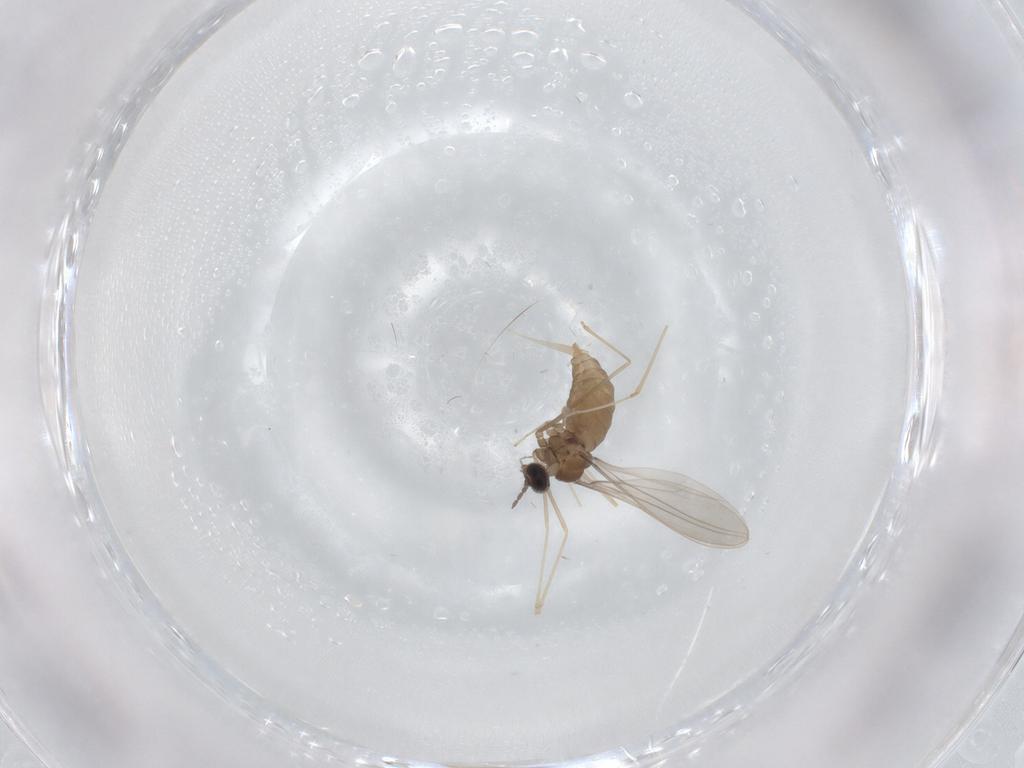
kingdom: Animalia
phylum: Arthropoda
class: Insecta
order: Diptera
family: Cecidomyiidae
